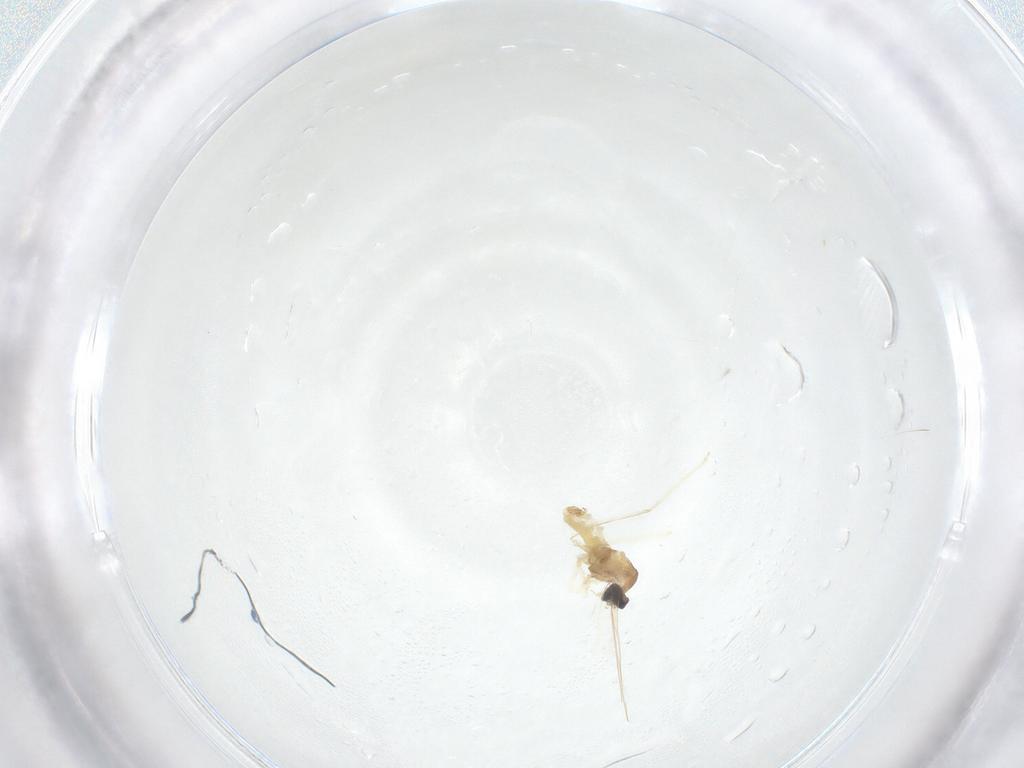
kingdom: Animalia
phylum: Arthropoda
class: Insecta
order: Diptera
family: Cecidomyiidae
